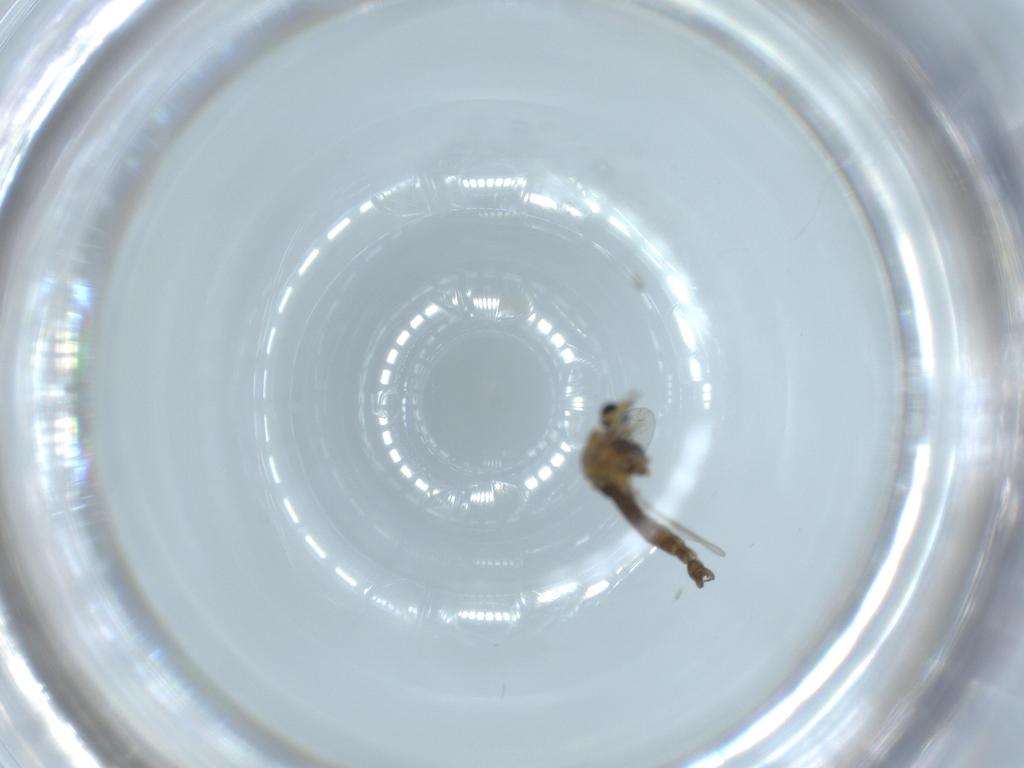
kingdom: Animalia
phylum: Arthropoda
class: Insecta
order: Diptera
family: Chironomidae
